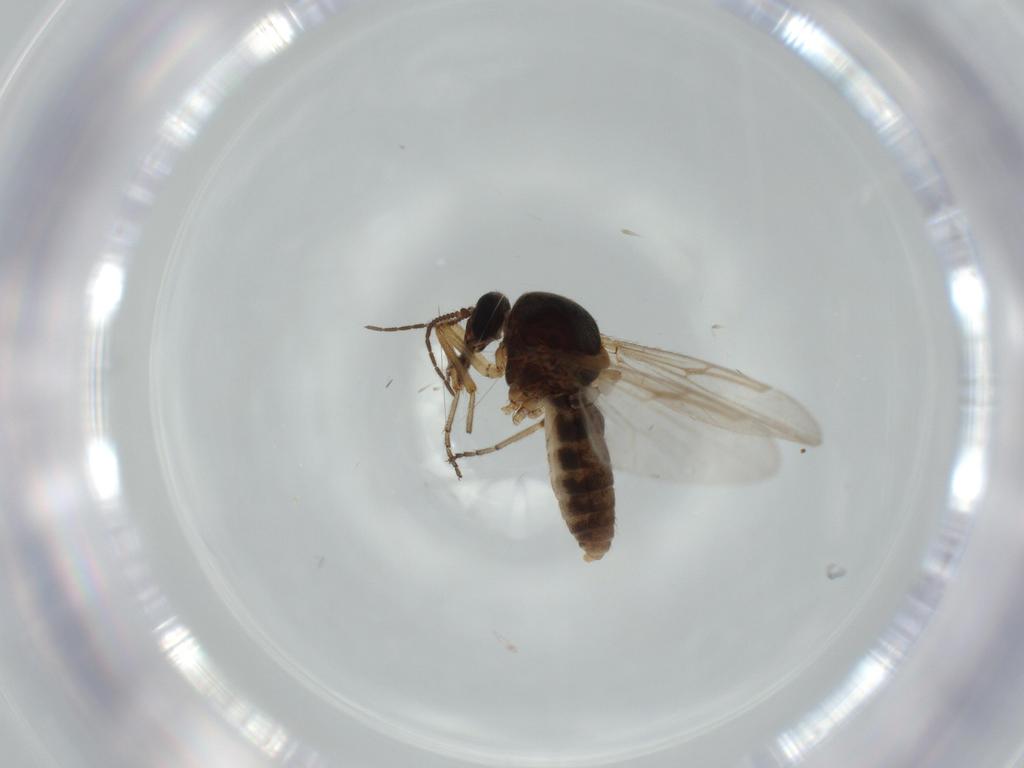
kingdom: Animalia
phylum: Arthropoda
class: Insecta
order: Diptera
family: Ceratopogonidae
